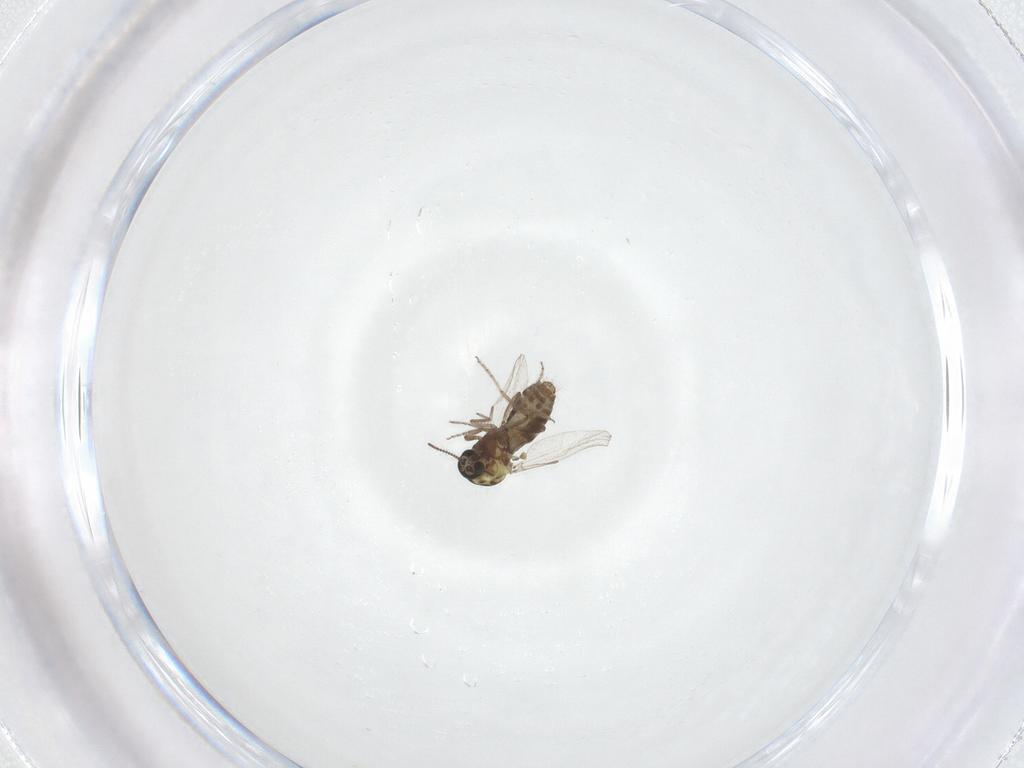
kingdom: Animalia
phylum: Arthropoda
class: Insecta
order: Diptera
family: Ceratopogonidae
